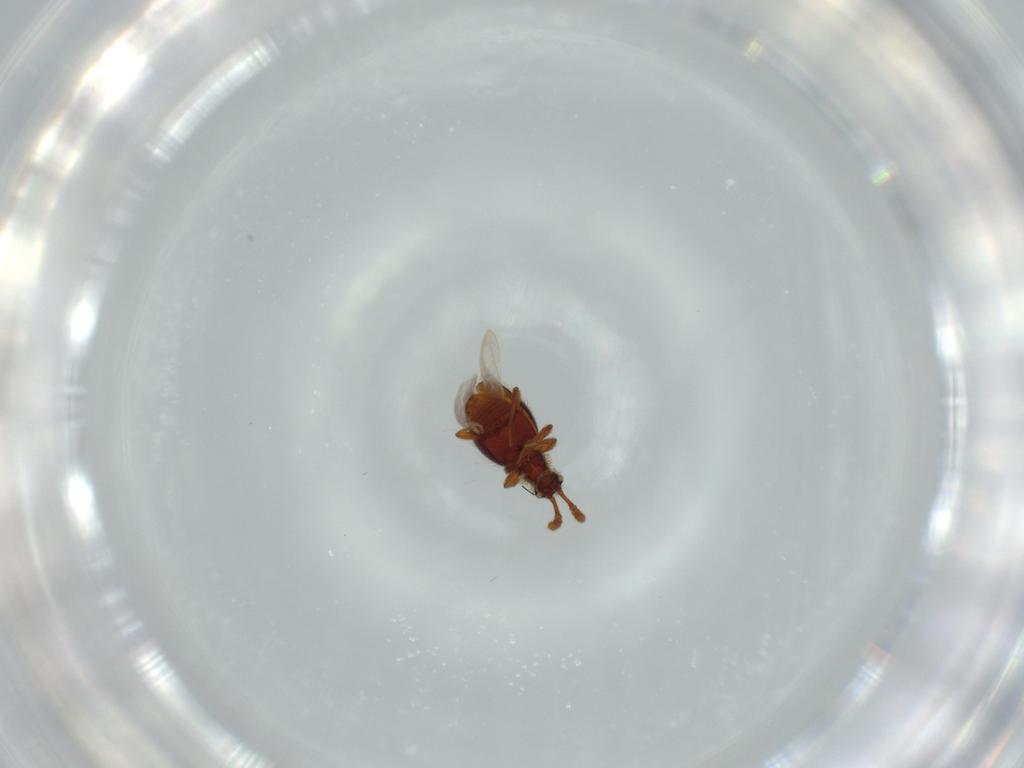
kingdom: Animalia
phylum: Arthropoda
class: Insecta
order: Coleoptera
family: Staphylinidae
